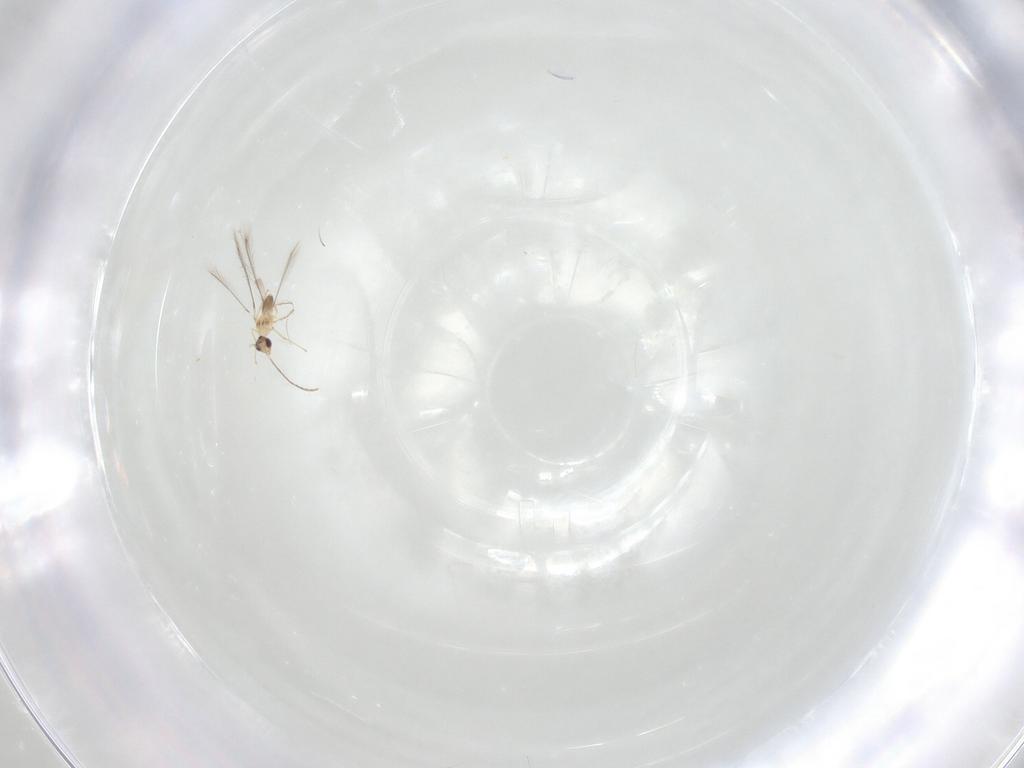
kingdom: Animalia
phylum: Arthropoda
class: Insecta
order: Hymenoptera
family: Mymaridae
